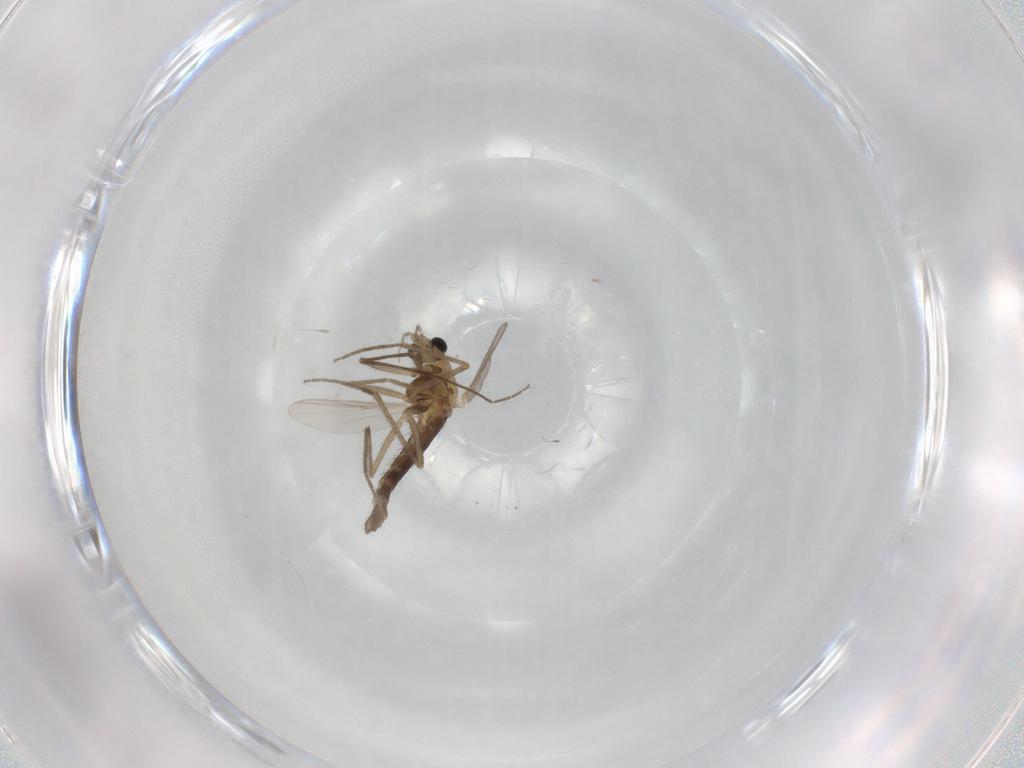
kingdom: Animalia
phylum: Arthropoda
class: Insecta
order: Diptera
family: Chironomidae
